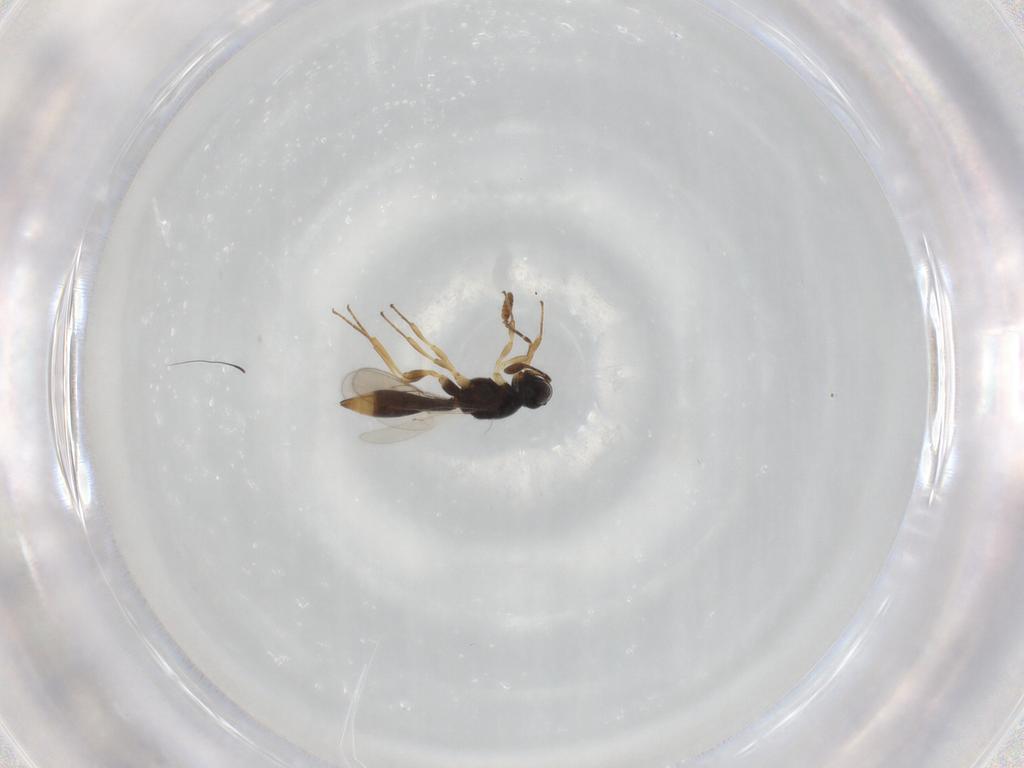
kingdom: Animalia
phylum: Arthropoda
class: Insecta
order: Hymenoptera
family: Scelionidae
